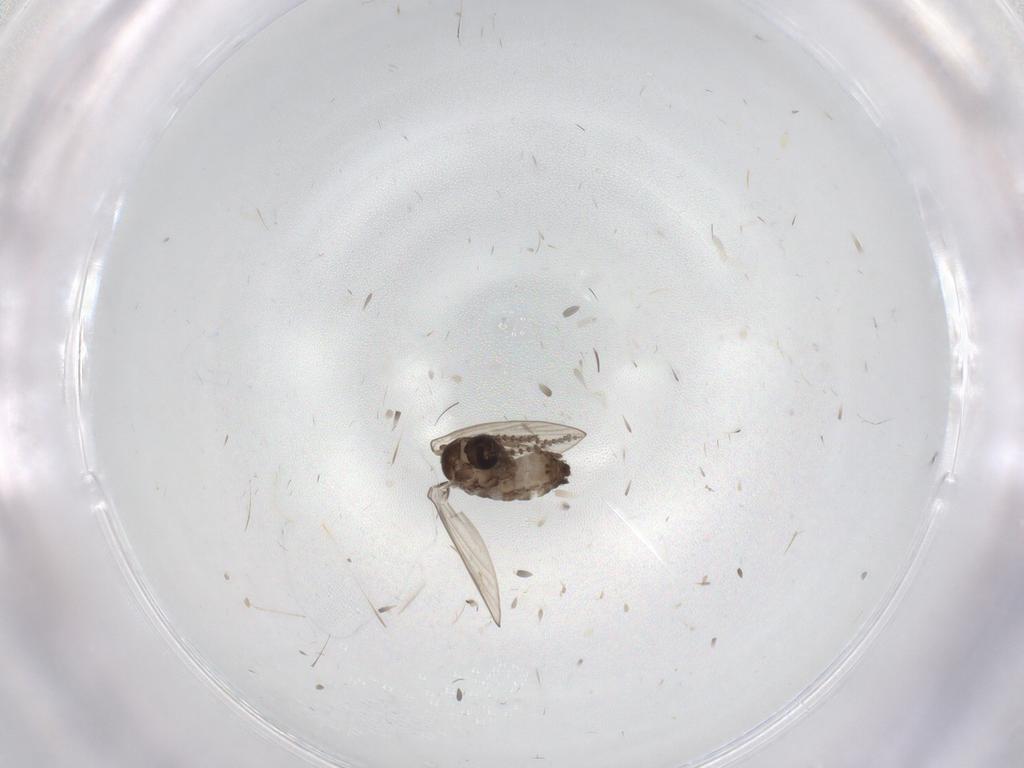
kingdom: Animalia
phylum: Arthropoda
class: Insecta
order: Diptera
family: Psychodidae
